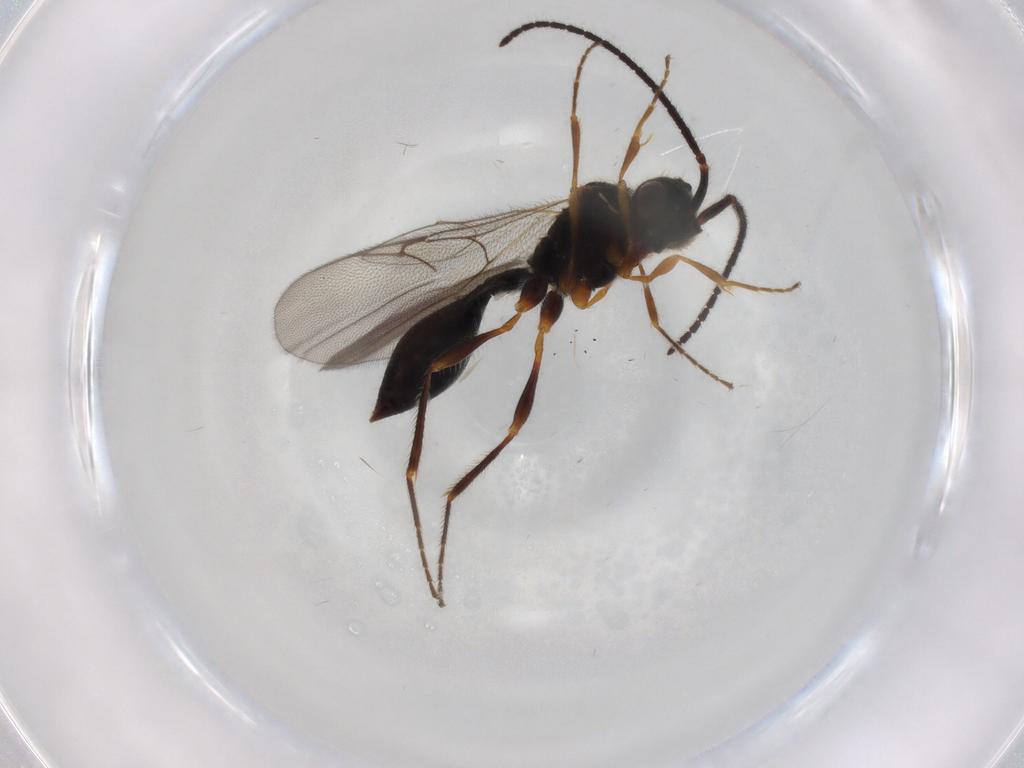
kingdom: Animalia
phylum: Arthropoda
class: Insecta
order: Hymenoptera
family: Diapriidae
